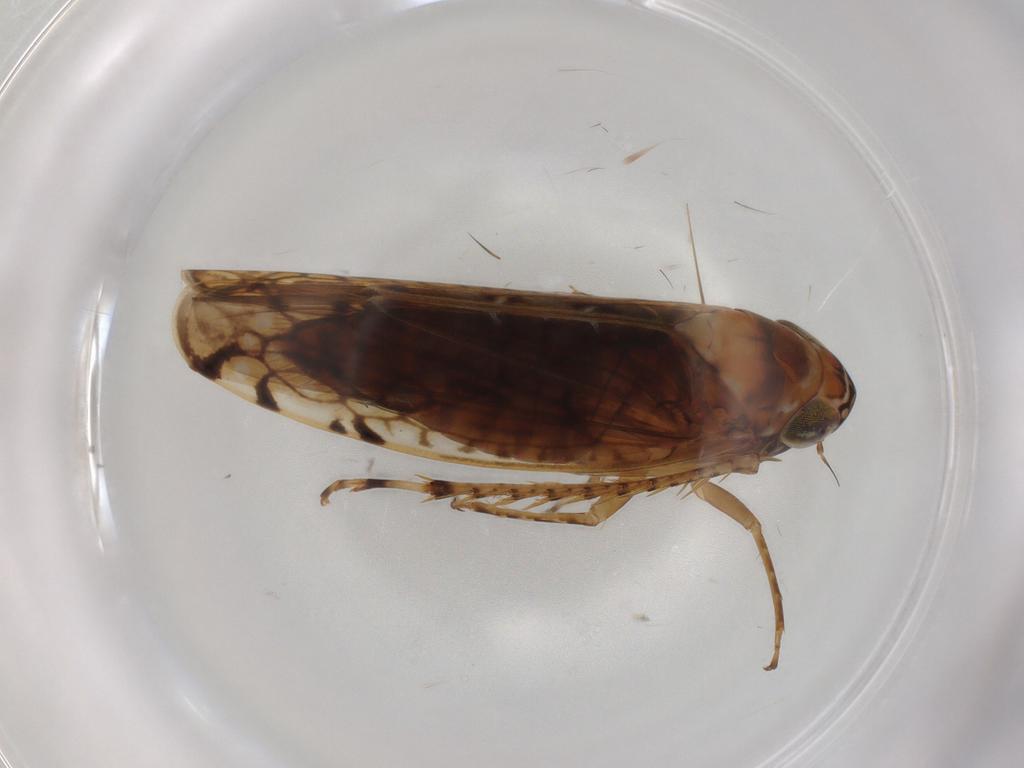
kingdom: Animalia
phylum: Arthropoda
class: Insecta
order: Hemiptera
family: Cicadellidae
